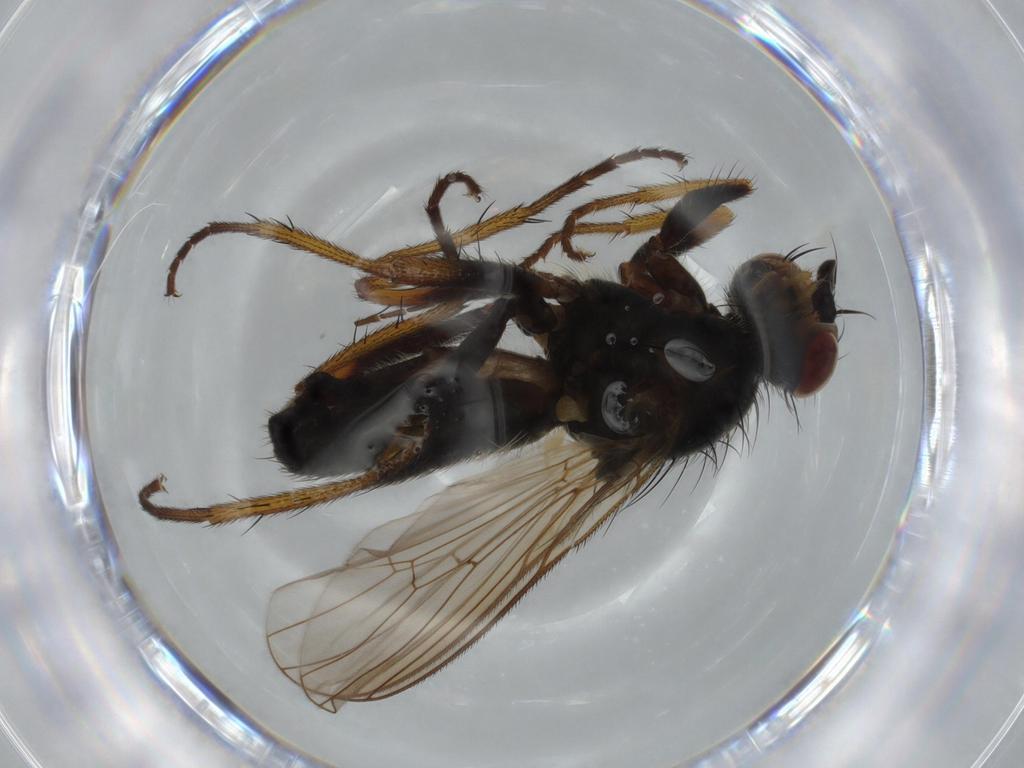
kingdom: Animalia
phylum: Arthropoda
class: Insecta
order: Diptera
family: Scathophagidae
